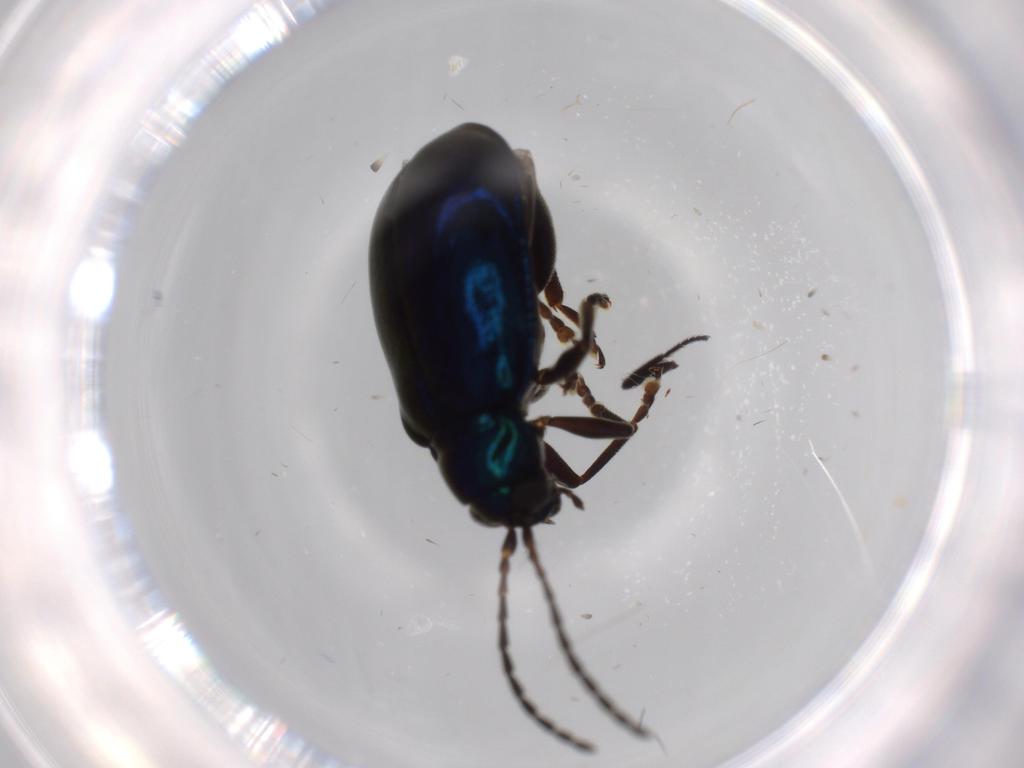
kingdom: Animalia
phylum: Arthropoda
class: Insecta
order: Coleoptera
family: Chrysomelidae
